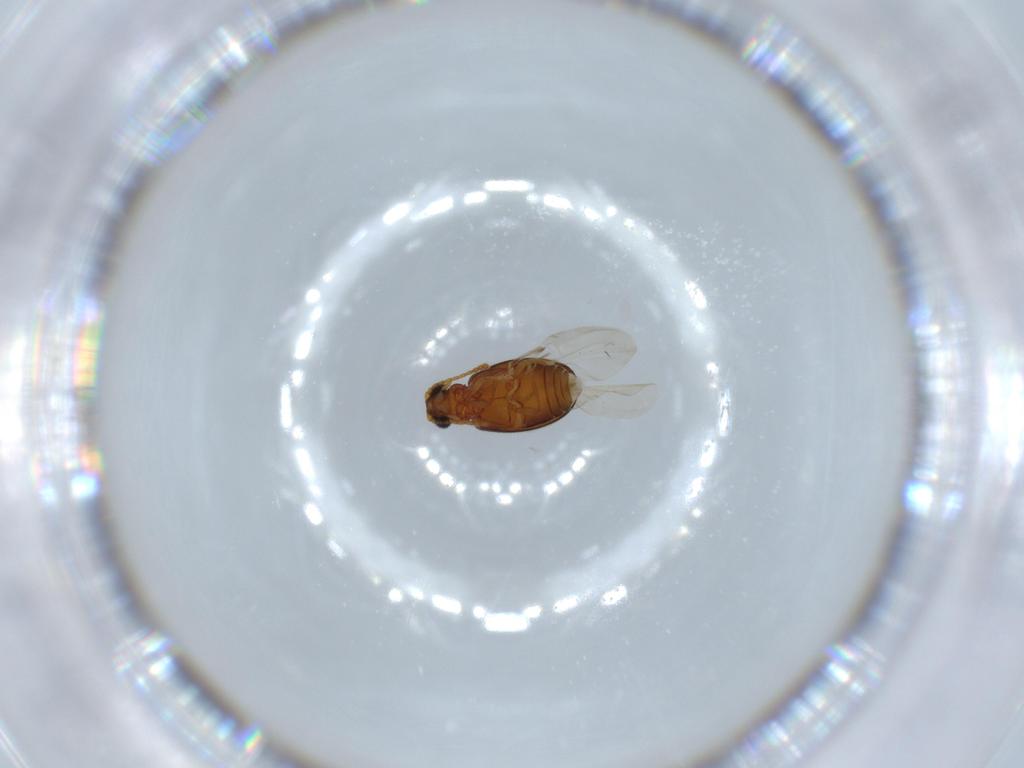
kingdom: Animalia
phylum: Arthropoda
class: Insecta
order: Coleoptera
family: Aderidae
